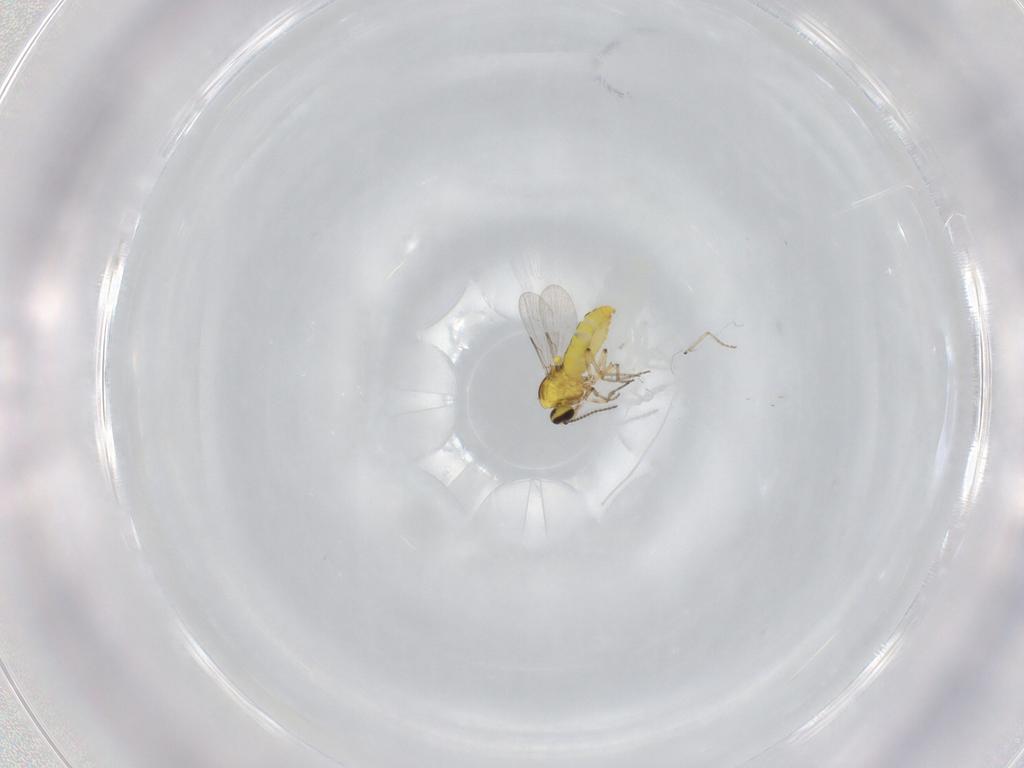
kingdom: Animalia
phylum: Arthropoda
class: Insecta
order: Diptera
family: Ceratopogonidae
